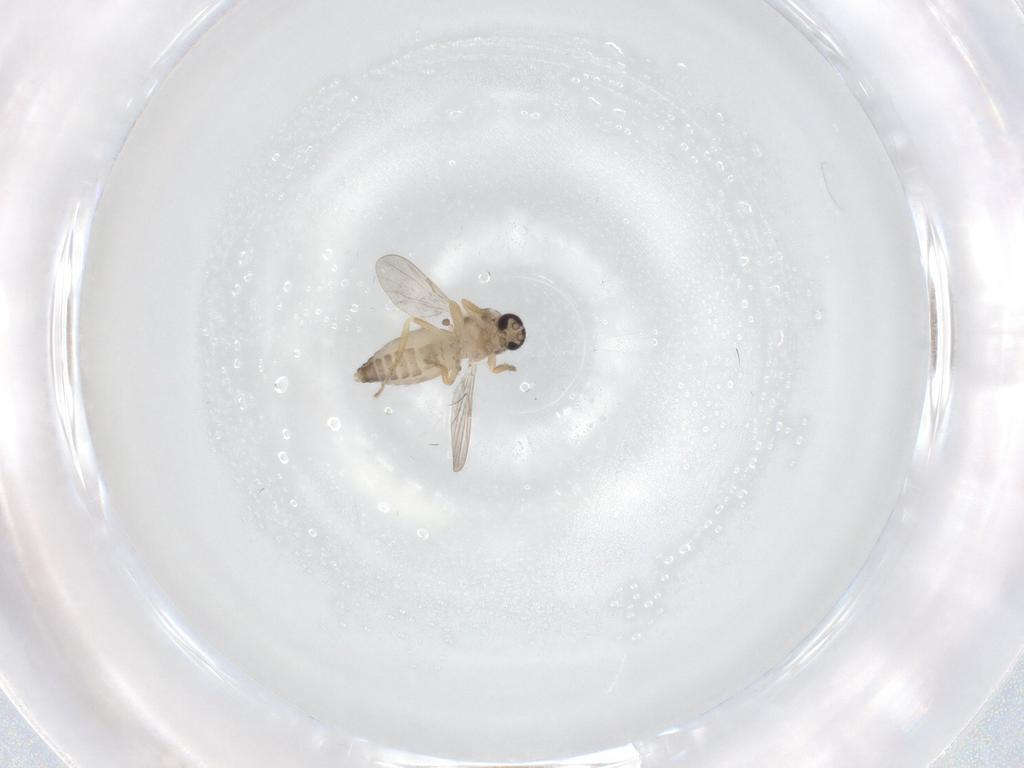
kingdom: Animalia
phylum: Arthropoda
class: Insecta
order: Diptera
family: Ceratopogonidae
